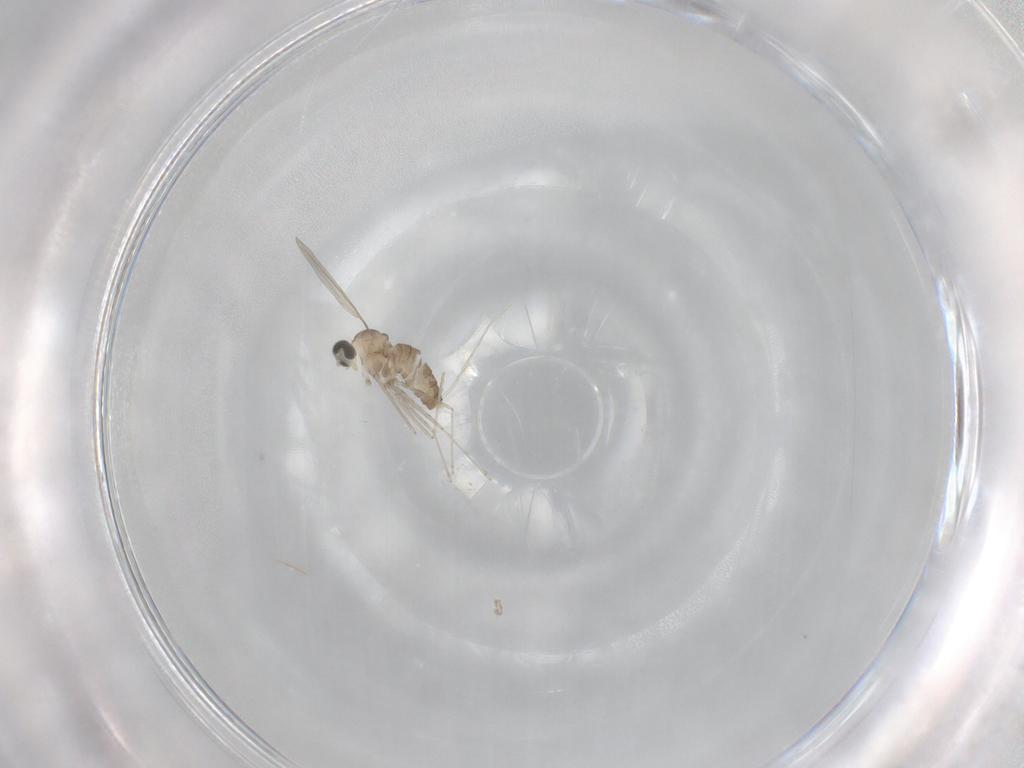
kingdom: Animalia
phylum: Arthropoda
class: Insecta
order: Diptera
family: Cecidomyiidae
